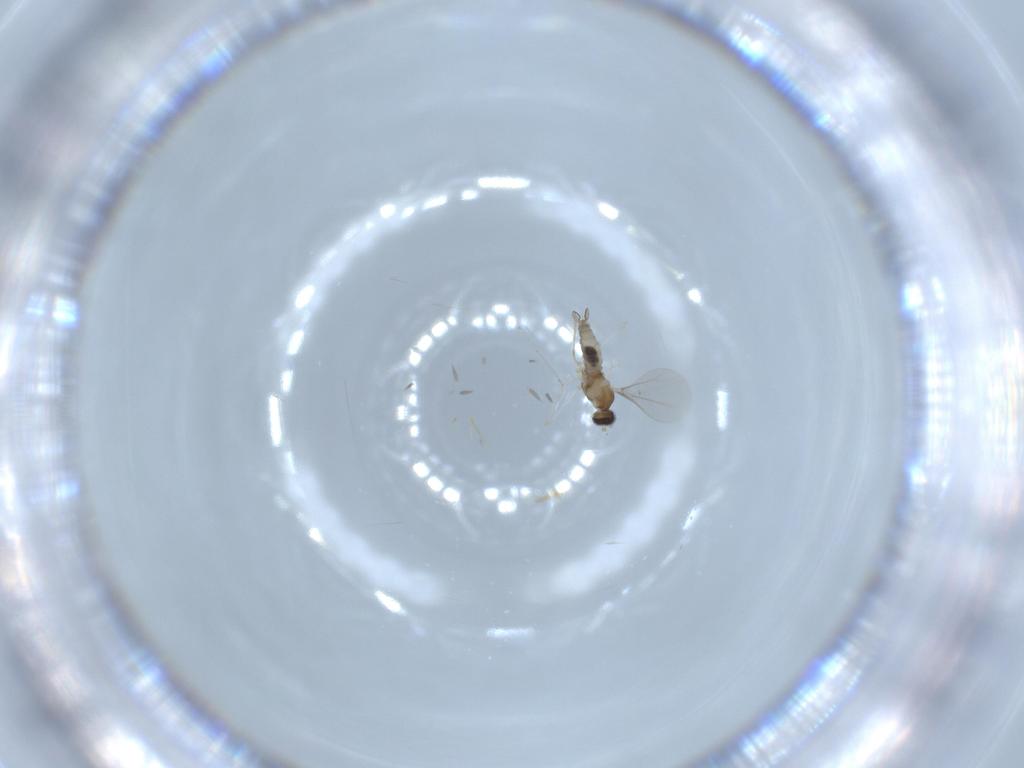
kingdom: Animalia
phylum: Arthropoda
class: Insecta
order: Diptera
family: Cecidomyiidae
